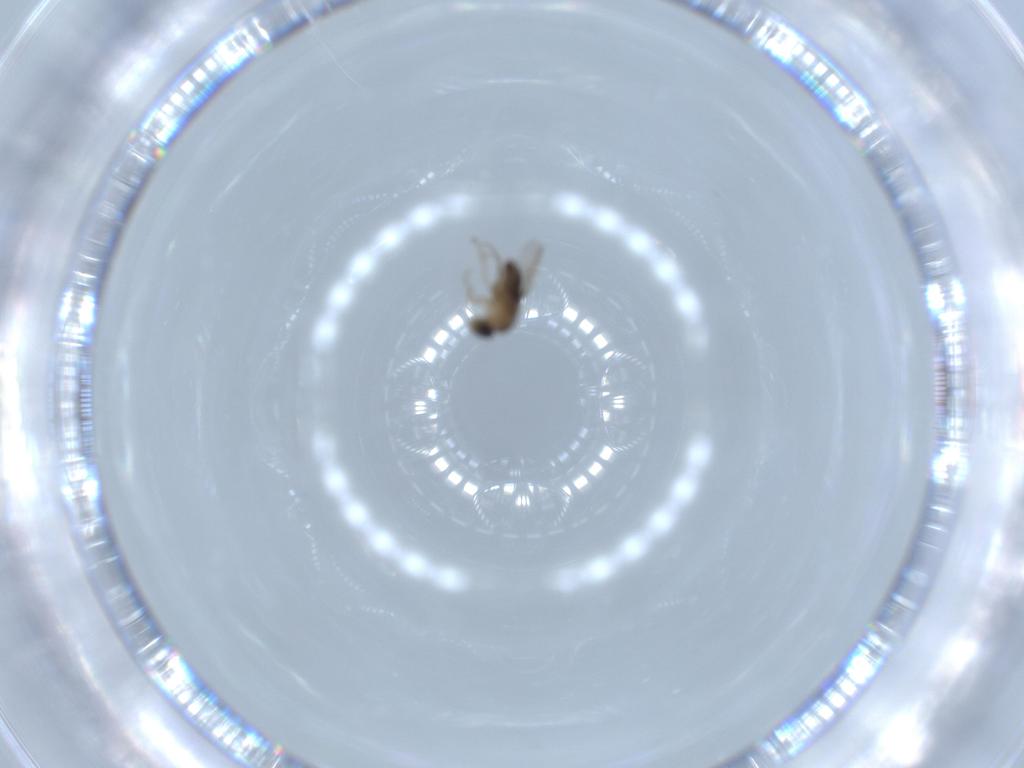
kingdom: Animalia
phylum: Arthropoda
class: Insecta
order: Diptera
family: Phoridae
